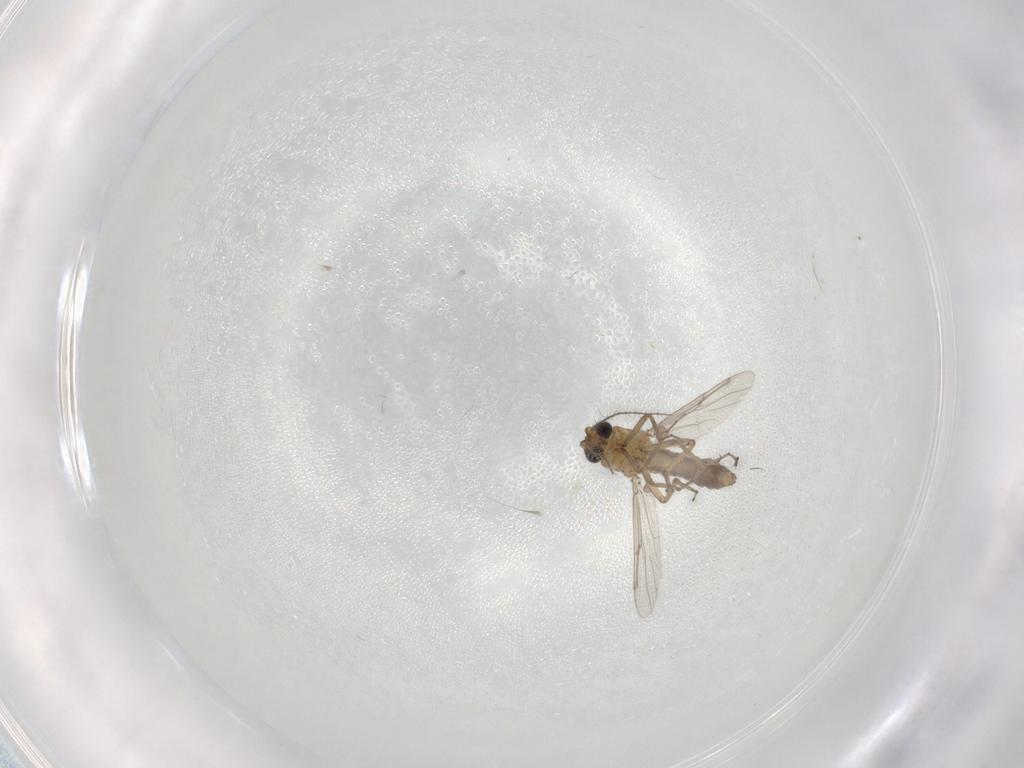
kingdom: Animalia
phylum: Arthropoda
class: Insecta
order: Diptera
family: Ceratopogonidae
